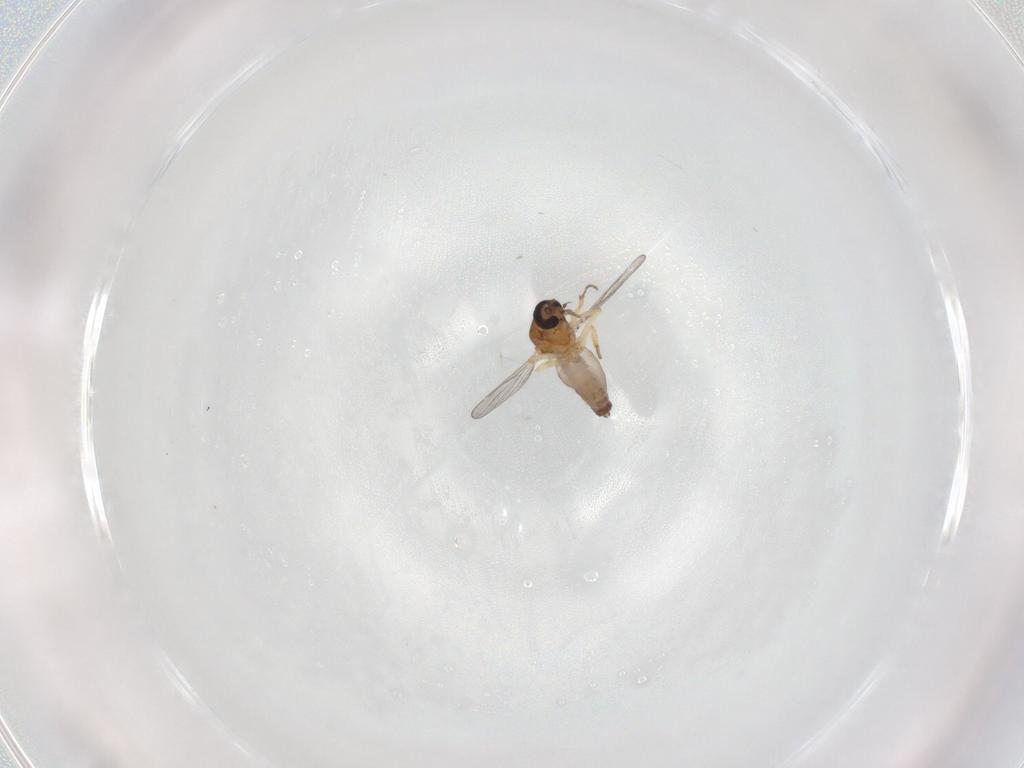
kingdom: Animalia
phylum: Arthropoda
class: Insecta
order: Diptera
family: Ceratopogonidae
